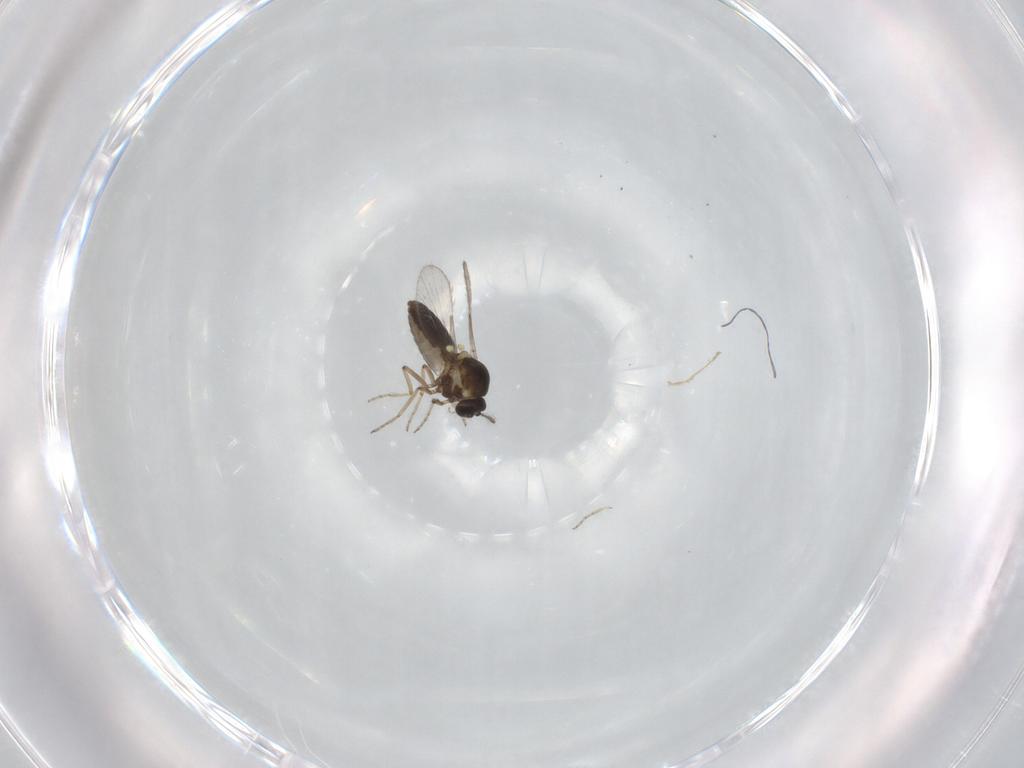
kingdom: Animalia
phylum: Arthropoda
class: Insecta
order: Diptera
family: Ceratopogonidae
